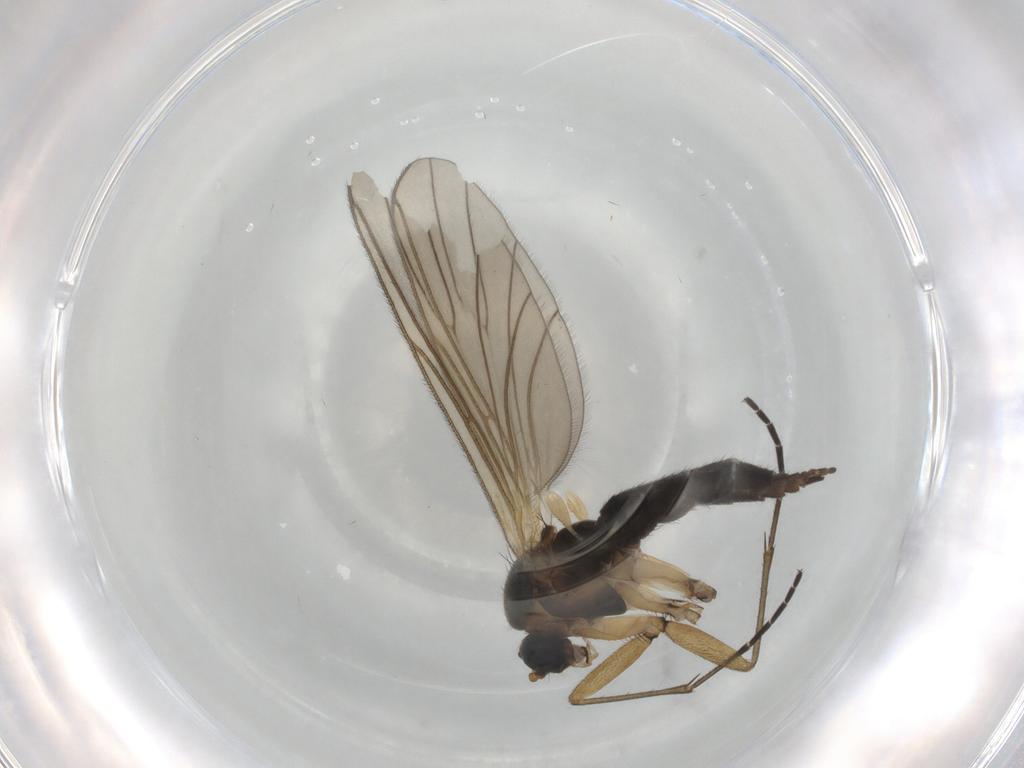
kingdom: Animalia
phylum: Arthropoda
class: Insecta
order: Diptera
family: Sciaridae
